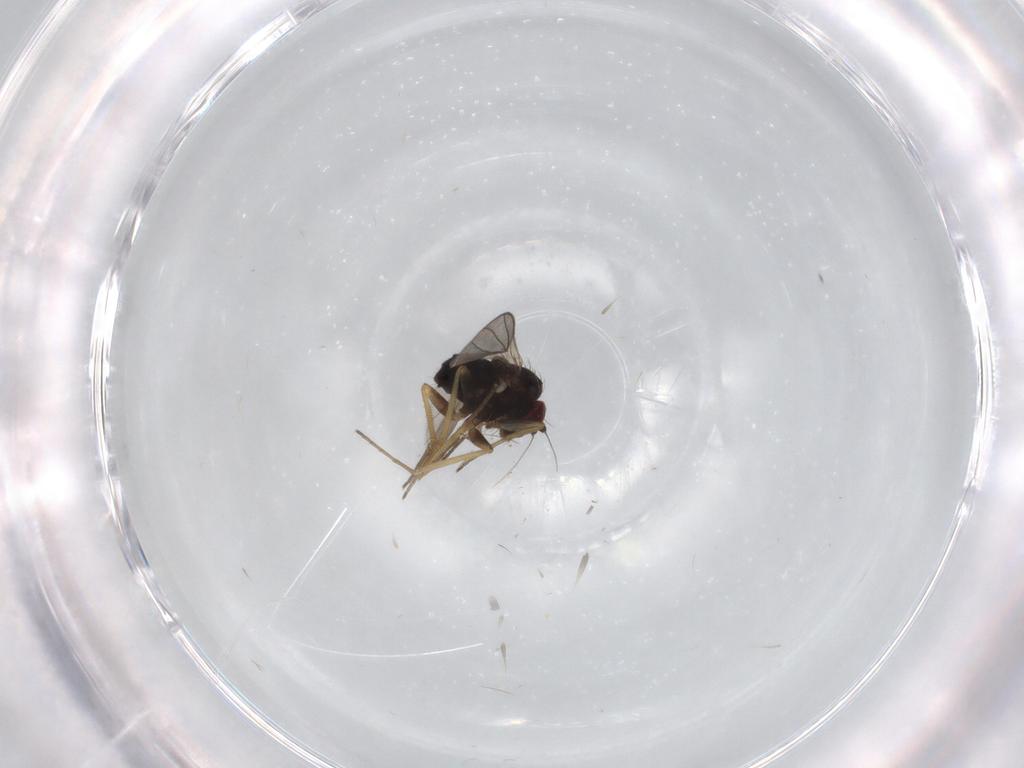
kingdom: Animalia
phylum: Arthropoda
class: Insecta
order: Diptera
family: Dolichopodidae
